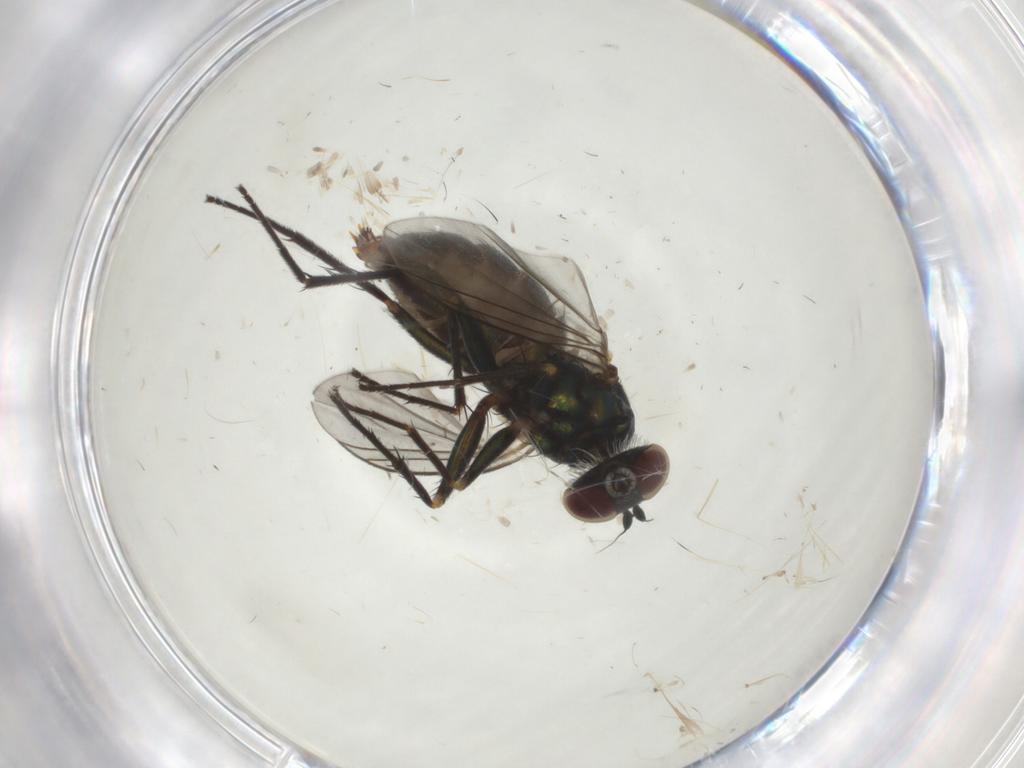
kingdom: Animalia
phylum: Arthropoda
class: Insecta
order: Diptera
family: Dolichopodidae
